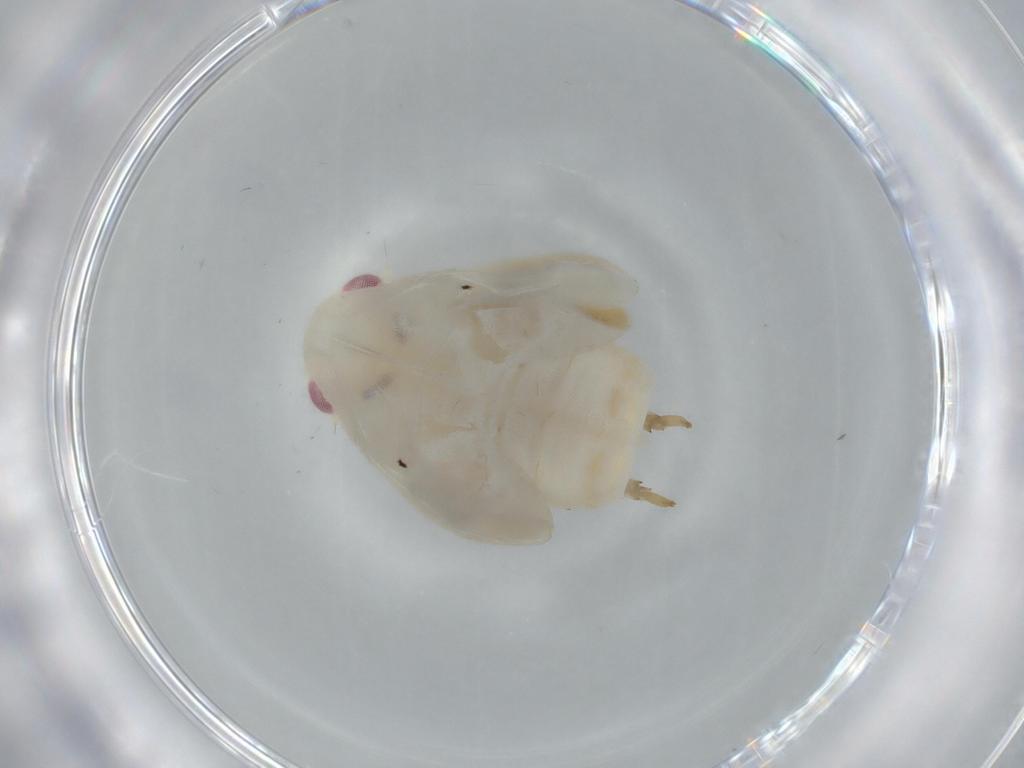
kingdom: Animalia
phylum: Arthropoda
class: Insecta
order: Hemiptera
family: Flatidae
